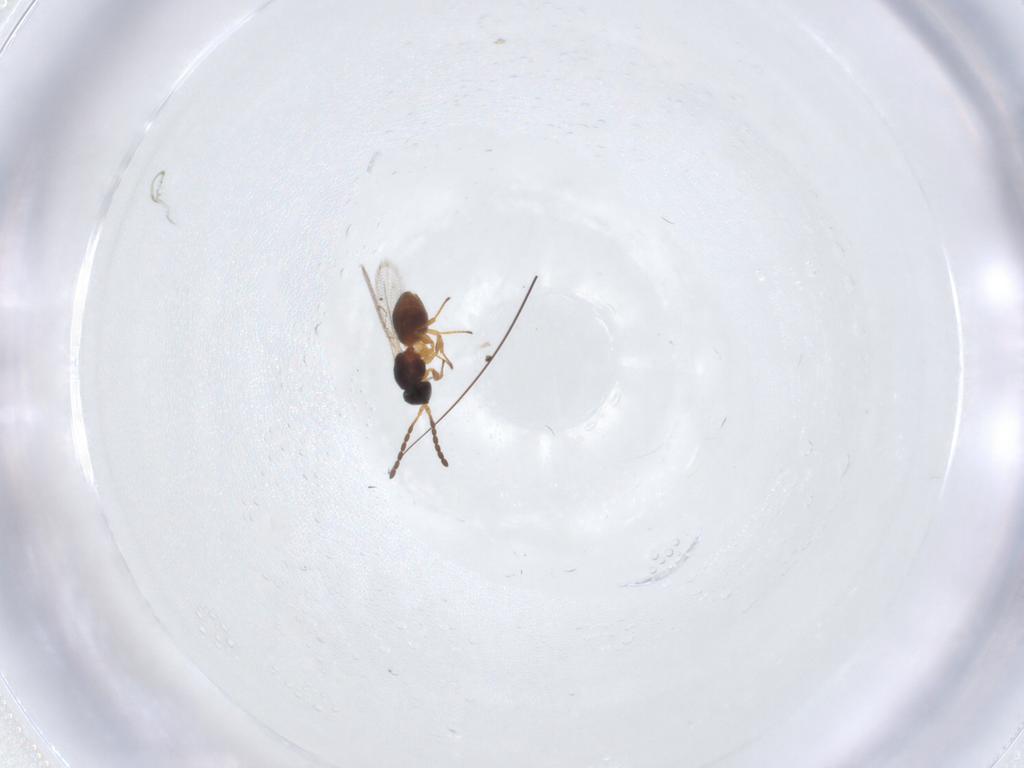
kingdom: Animalia
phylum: Arthropoda
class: Insecta
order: Hymenoptera
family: Figitidae
